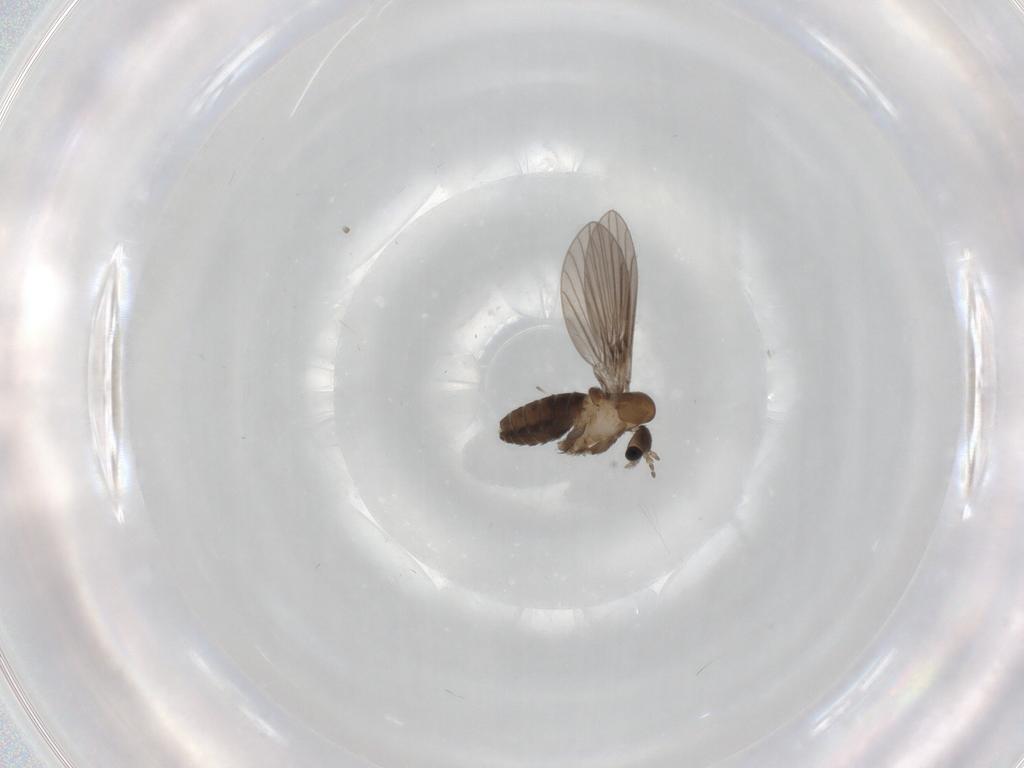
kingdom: Animalia
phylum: Arthropoda
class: Insecta
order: Diptera
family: Psychodidae
